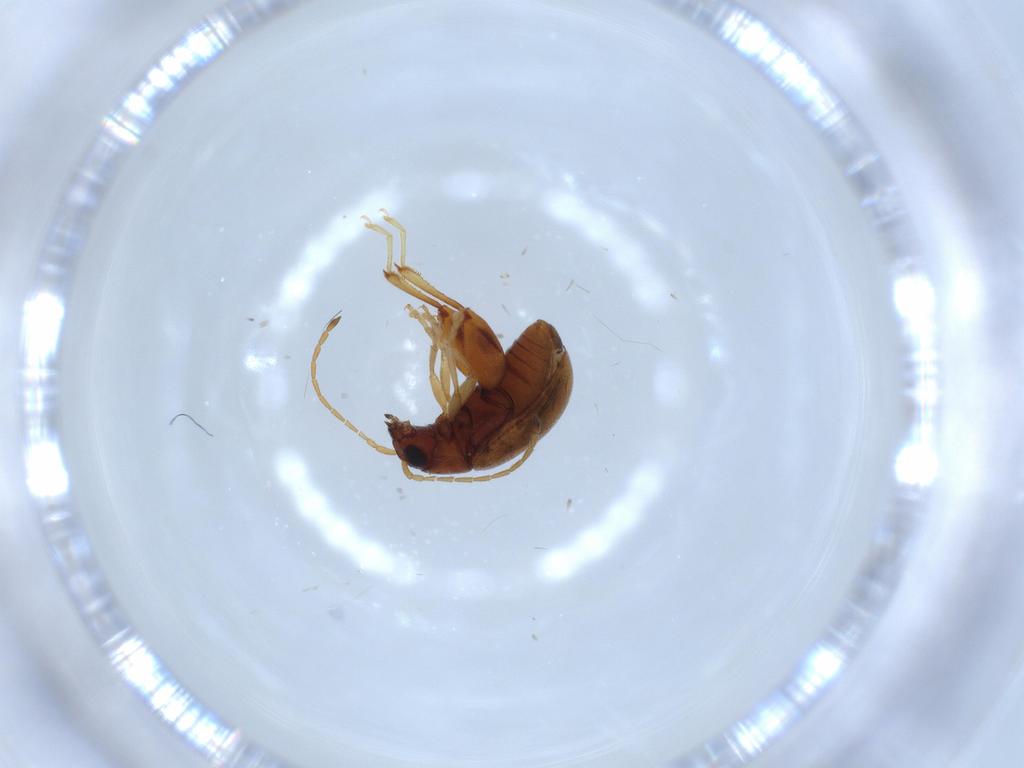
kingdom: Animalia
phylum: Arthropoda
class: Insecta
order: Coleoptera
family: Chrysomelidae
